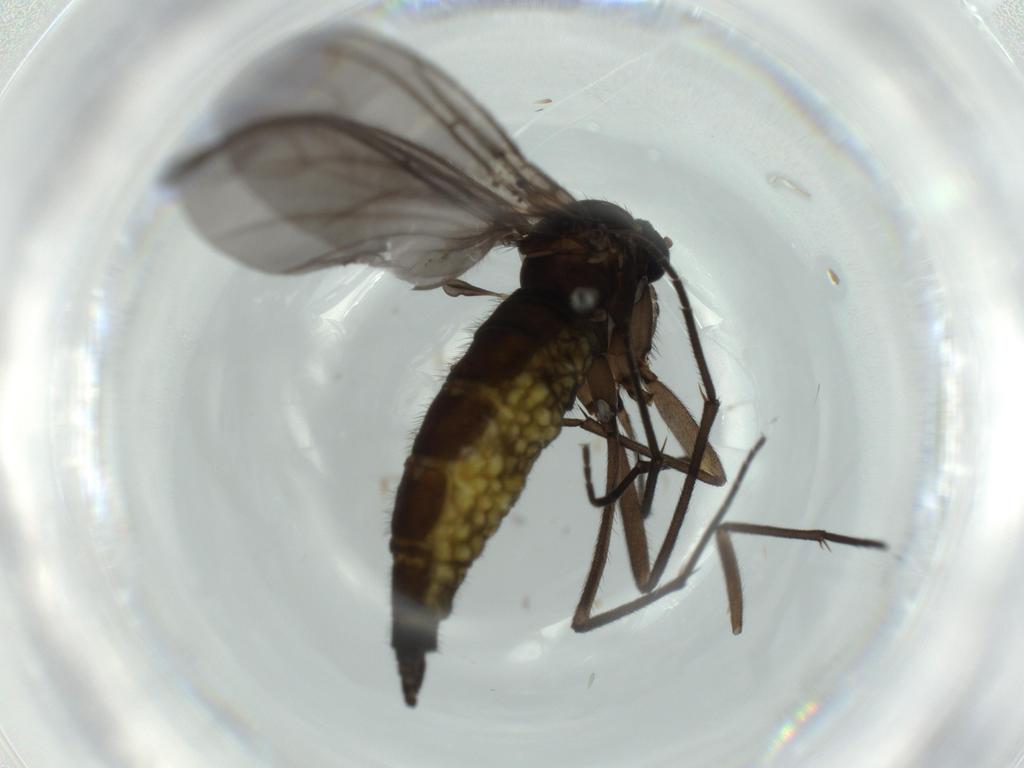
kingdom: Animalia
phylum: Arthropoda
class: Insecta
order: Diptera
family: Sciaridae
